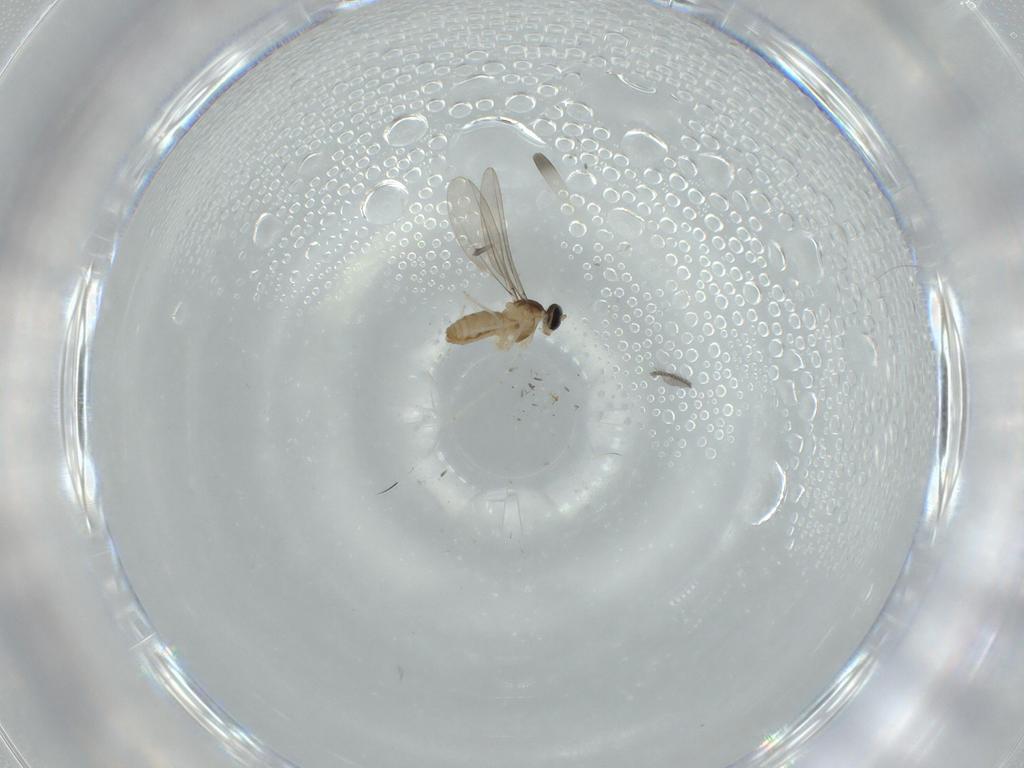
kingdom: Animalia
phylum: Arthropoda
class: Insecta
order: Diptera
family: Sciaridae
